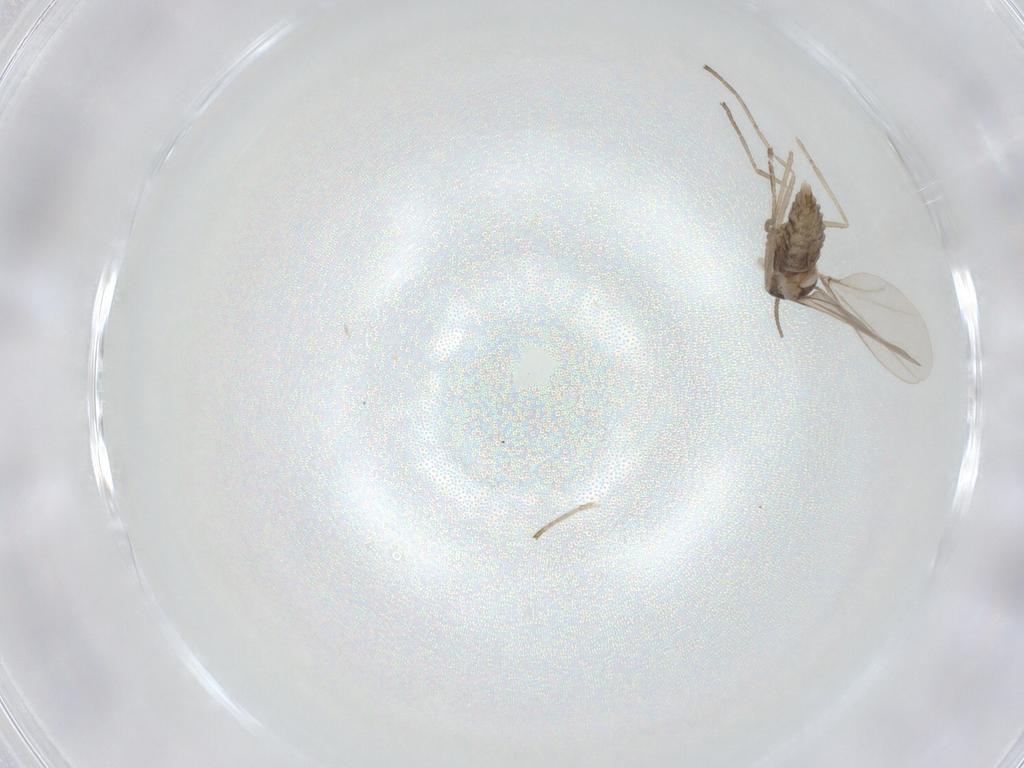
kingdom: Animalia
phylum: Arthropoda
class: Insecta
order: Diptera
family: Cecidomyiidae
